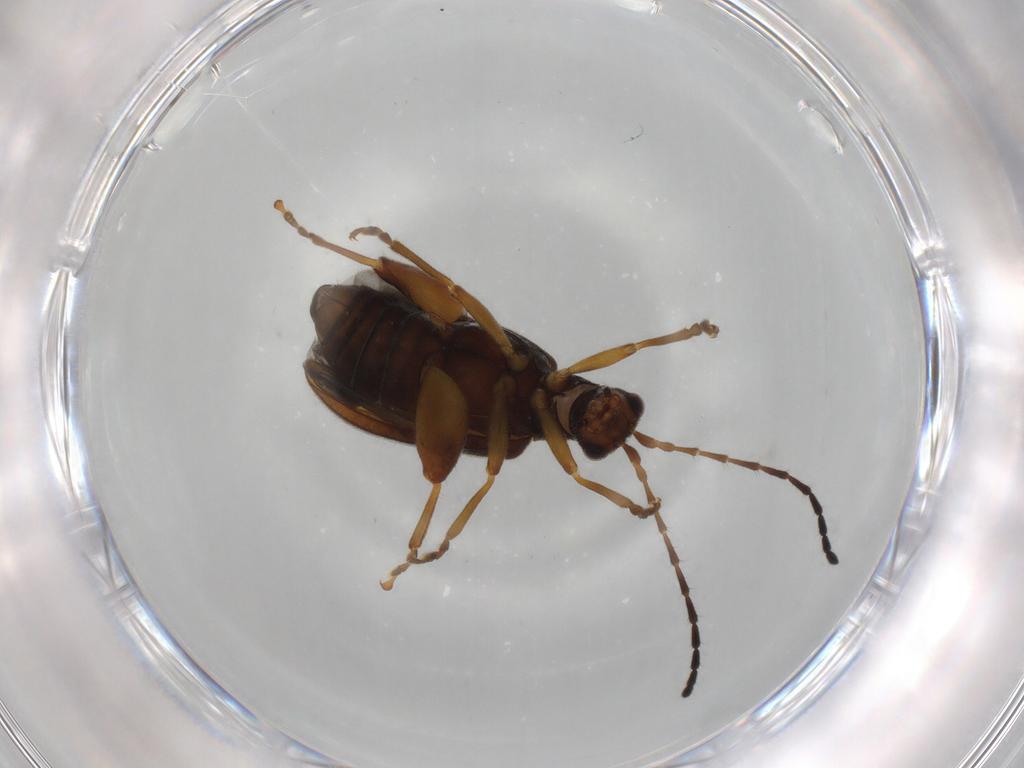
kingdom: Animalia
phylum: Arthropoda
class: Insecta
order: Coleoptera
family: Chrysomelidae
